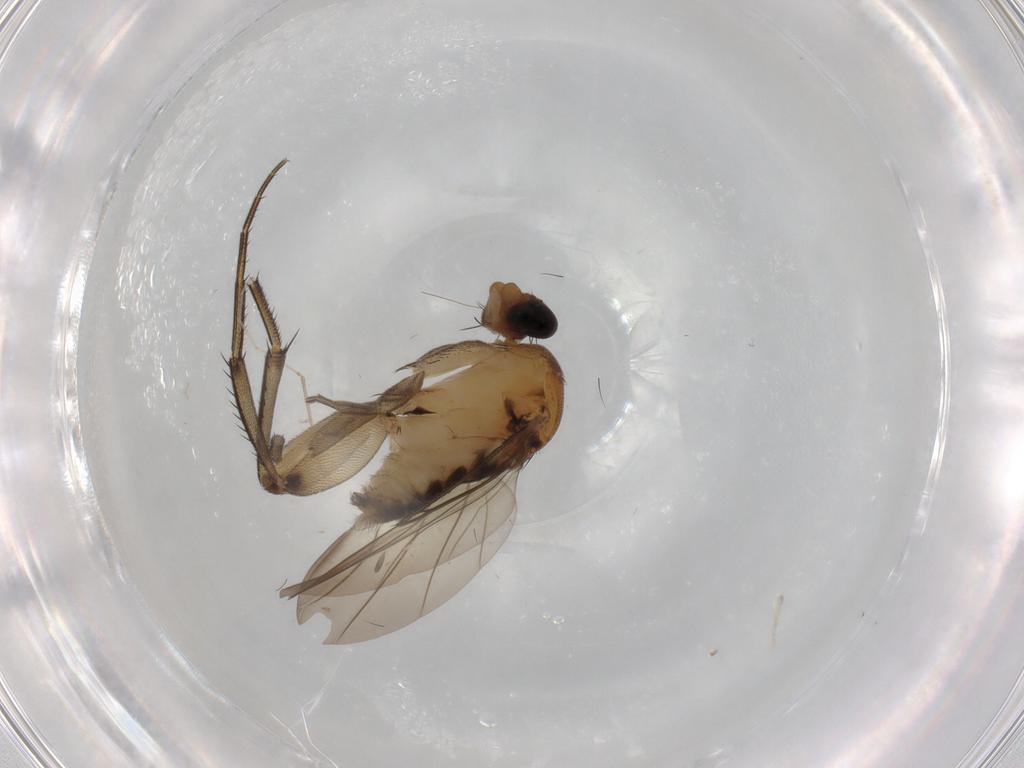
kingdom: Animalia
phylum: Arthropoda
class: Insecta
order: Diptera
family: Phoridae
